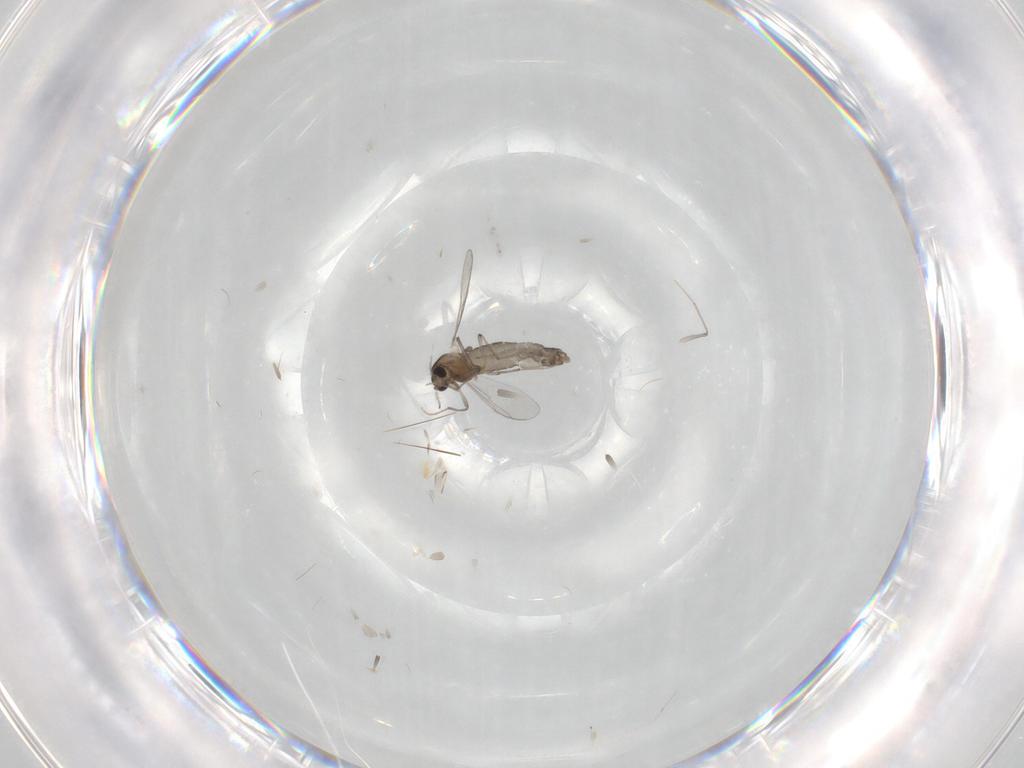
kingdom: Animalia
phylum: Arthropoda
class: Insecta
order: Diptera
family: Chironomidae
